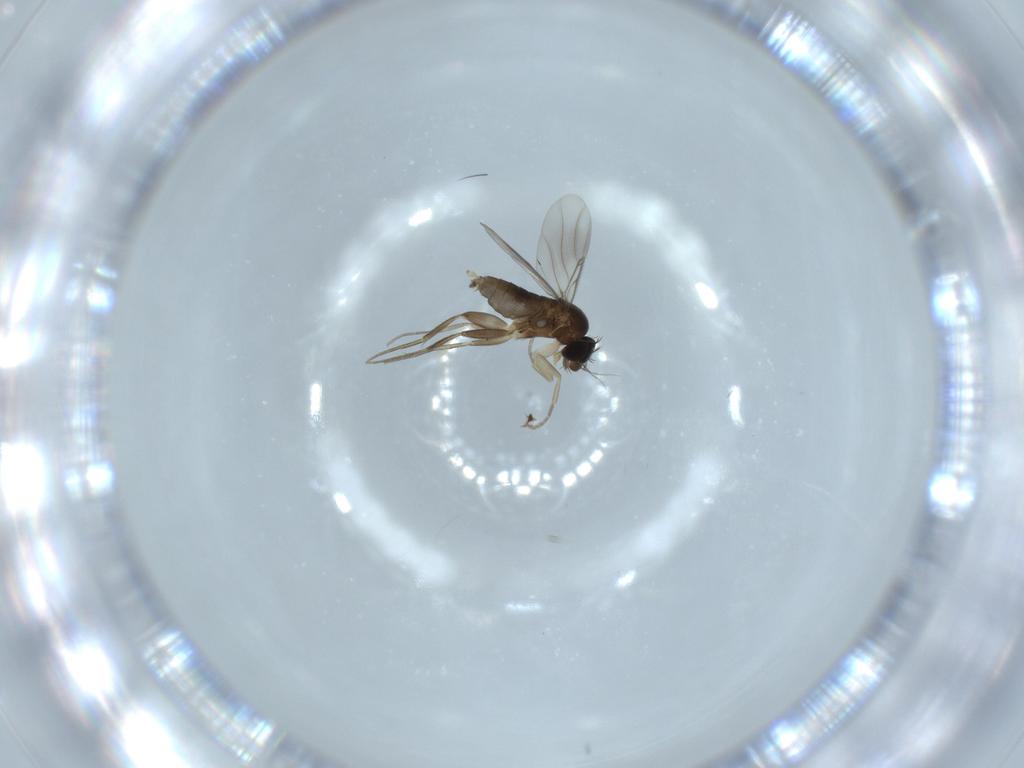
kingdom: Animalia
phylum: Arthropoda
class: Insecta
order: Diptera
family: Phoridae
